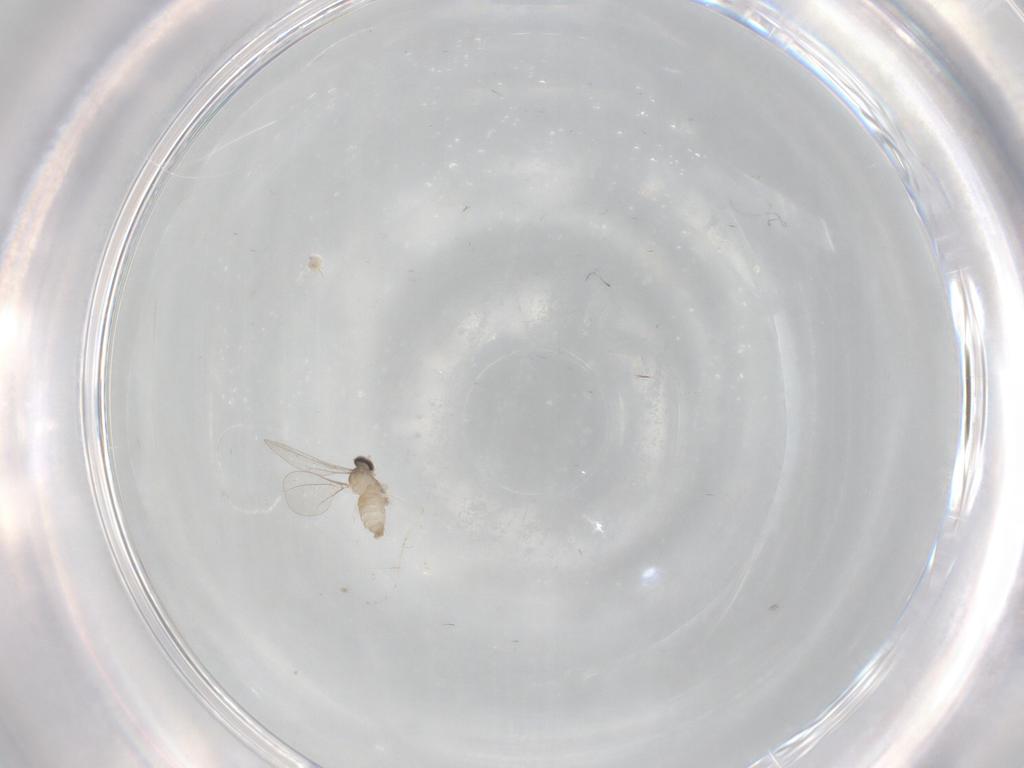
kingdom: Animalia
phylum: Arthropoda
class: Insecta
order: Diptera
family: Cecidomyiidae
